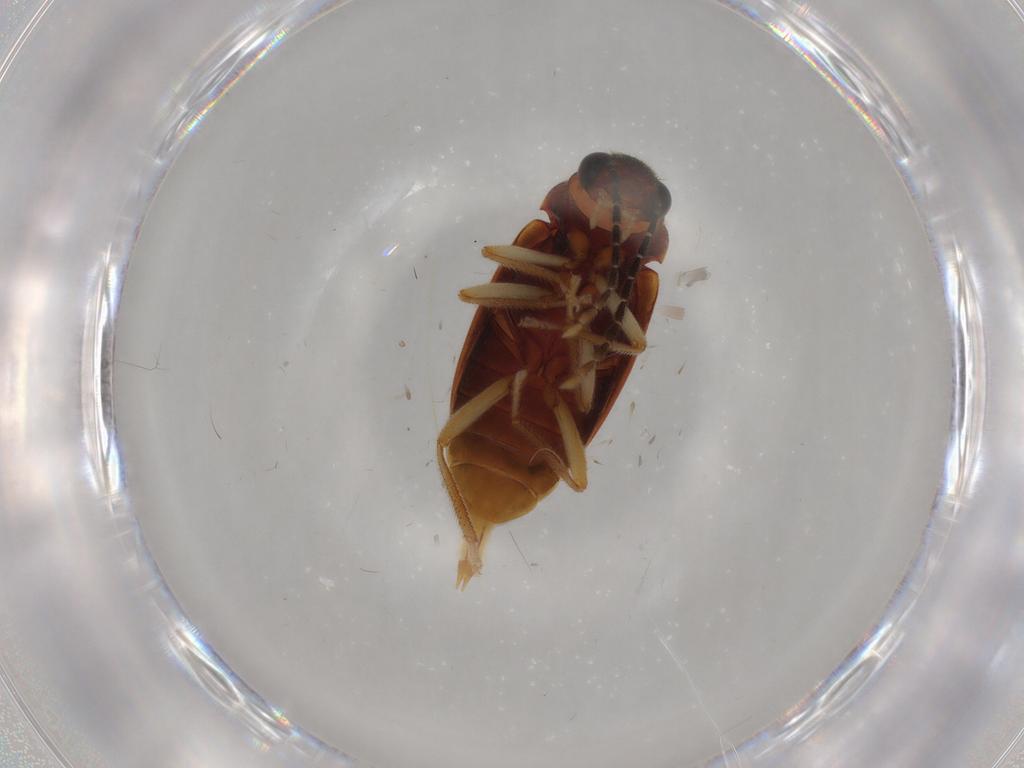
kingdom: Animalia
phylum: Arthropoda
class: Insecta
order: Coleoptera
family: Ptilodactylidae
